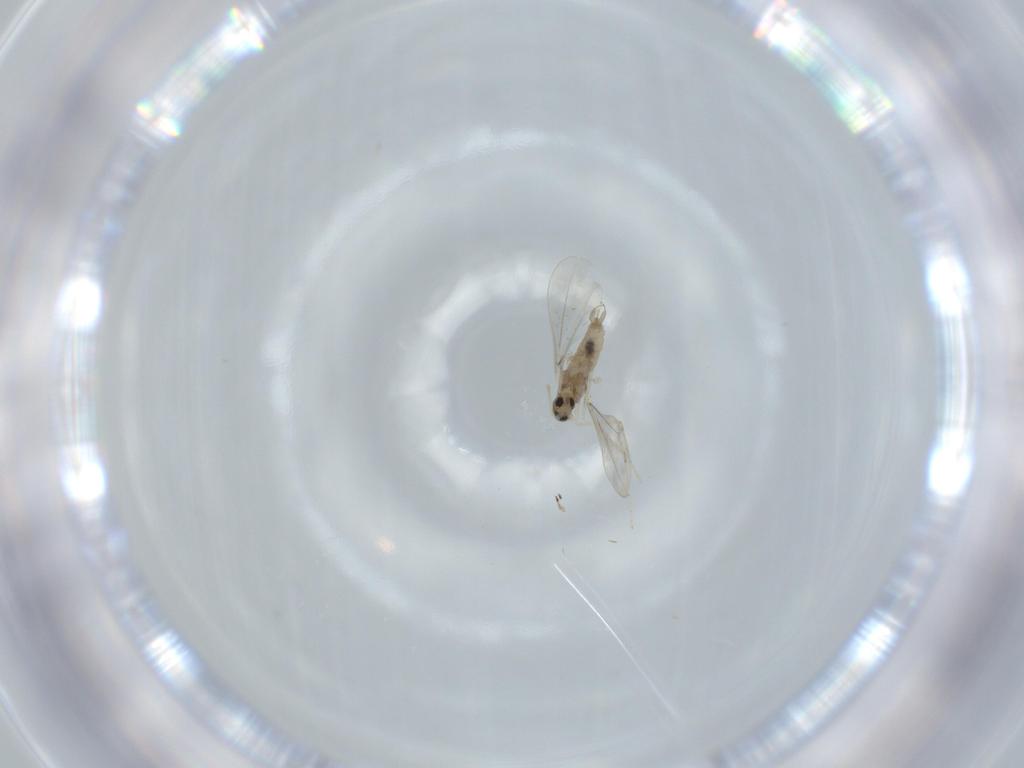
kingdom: Animalia
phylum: Arthropoda
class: Insecta
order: Diptera
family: Cecidomyiidae
